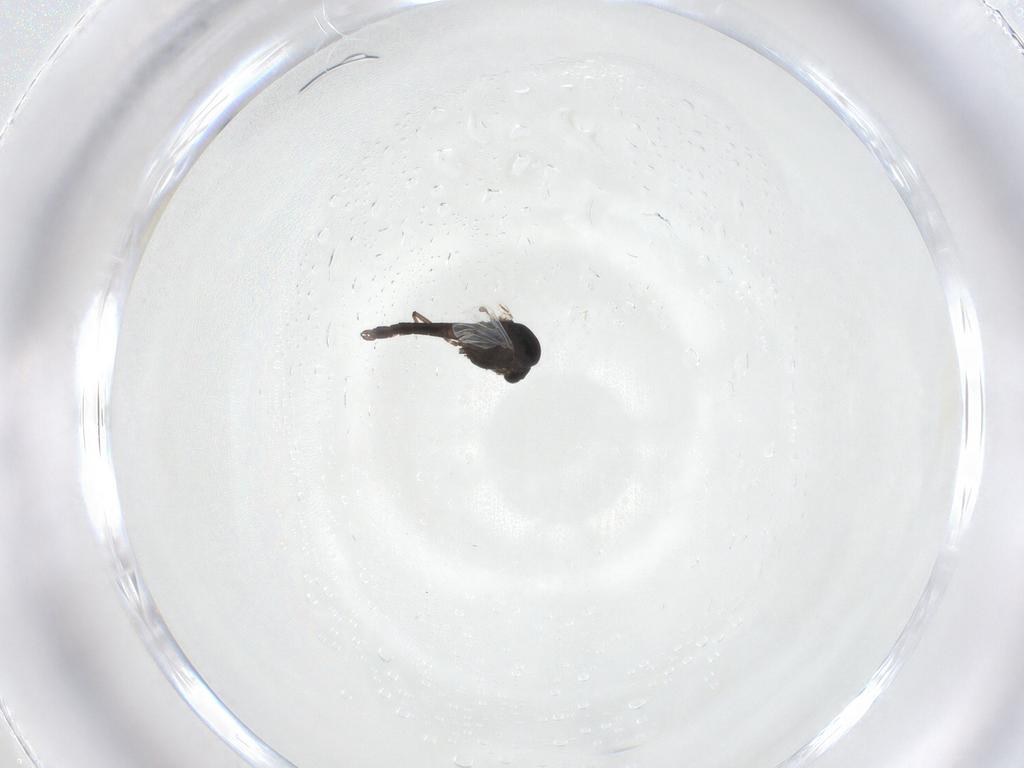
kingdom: Animalia
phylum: Arthropoda
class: Insecta
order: Diptera
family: Chironomidae
